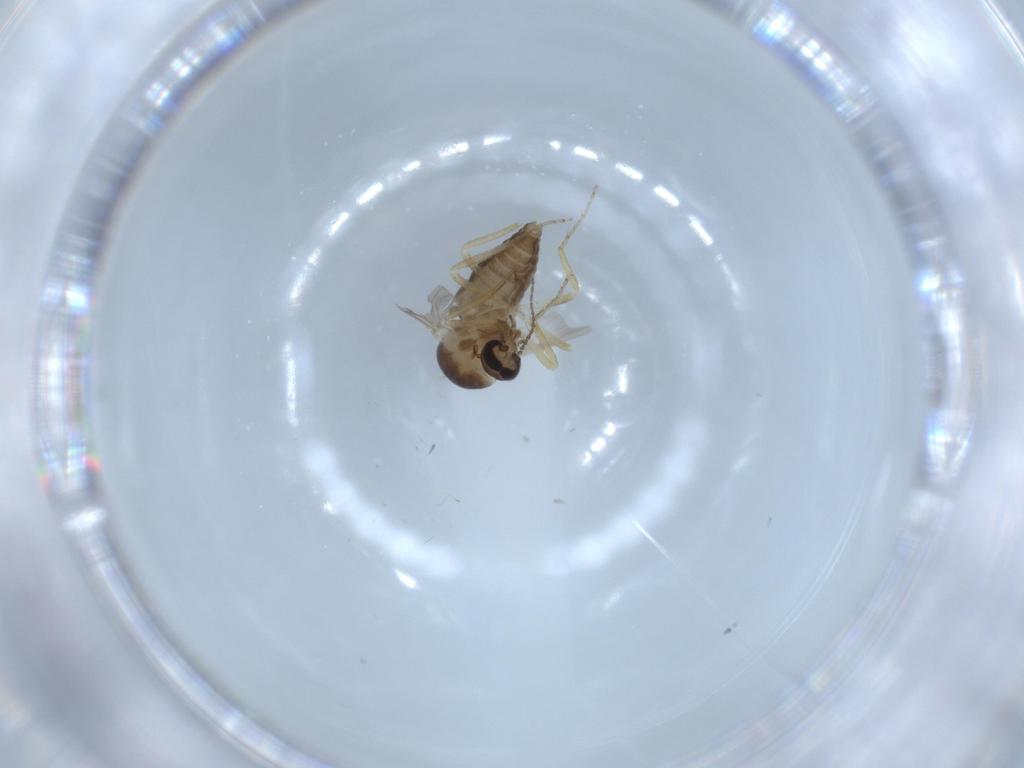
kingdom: Animalia
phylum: Arthropoda
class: Insecta
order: Diptera
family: Ceratopogonidae
